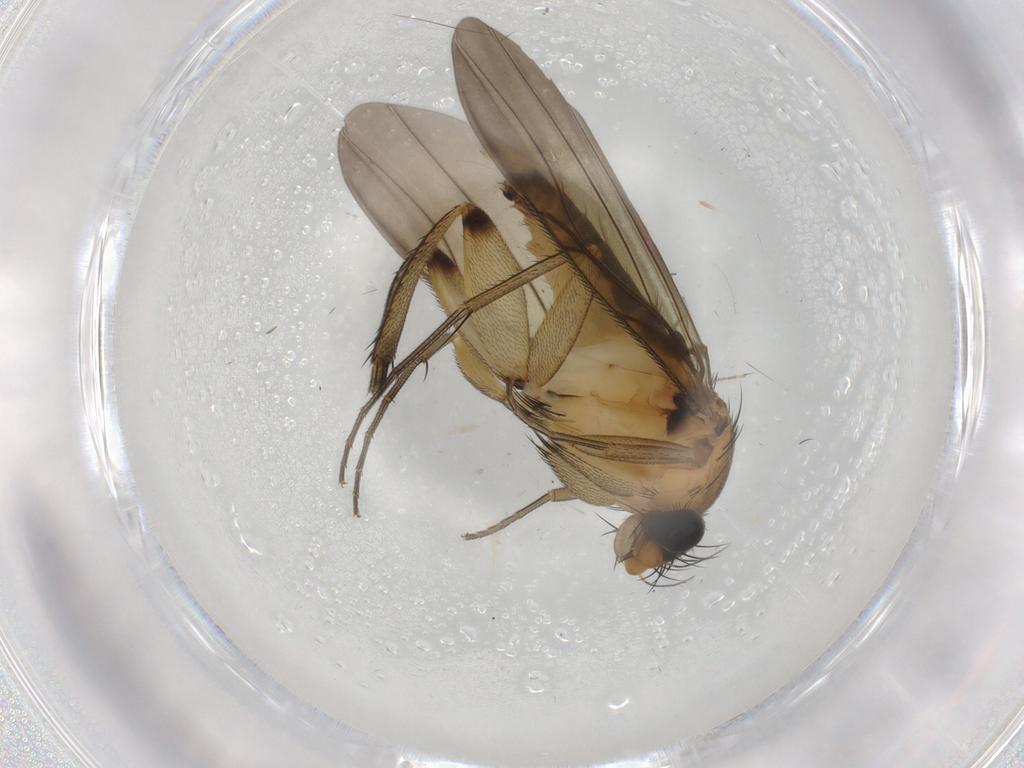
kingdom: Animalia
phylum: Arthropoda
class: Insecta
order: Diptera
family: Phoridae
